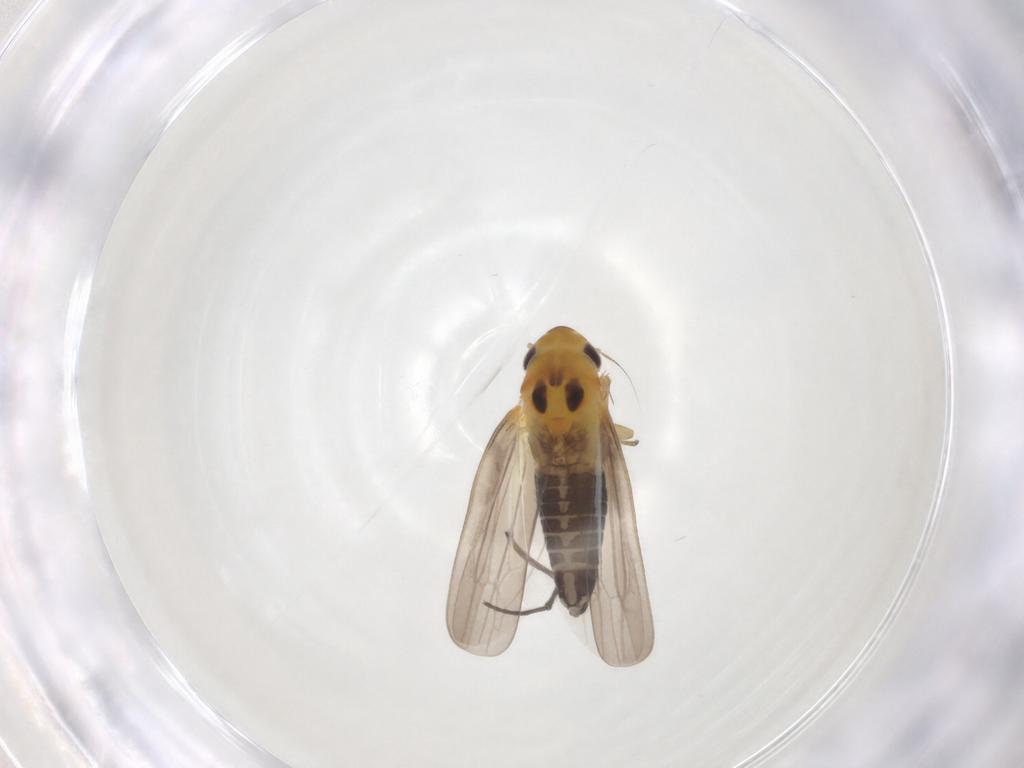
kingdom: Animalia
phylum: Arthropoda
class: Insecta
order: Hemiptera
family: Cicadellidae
